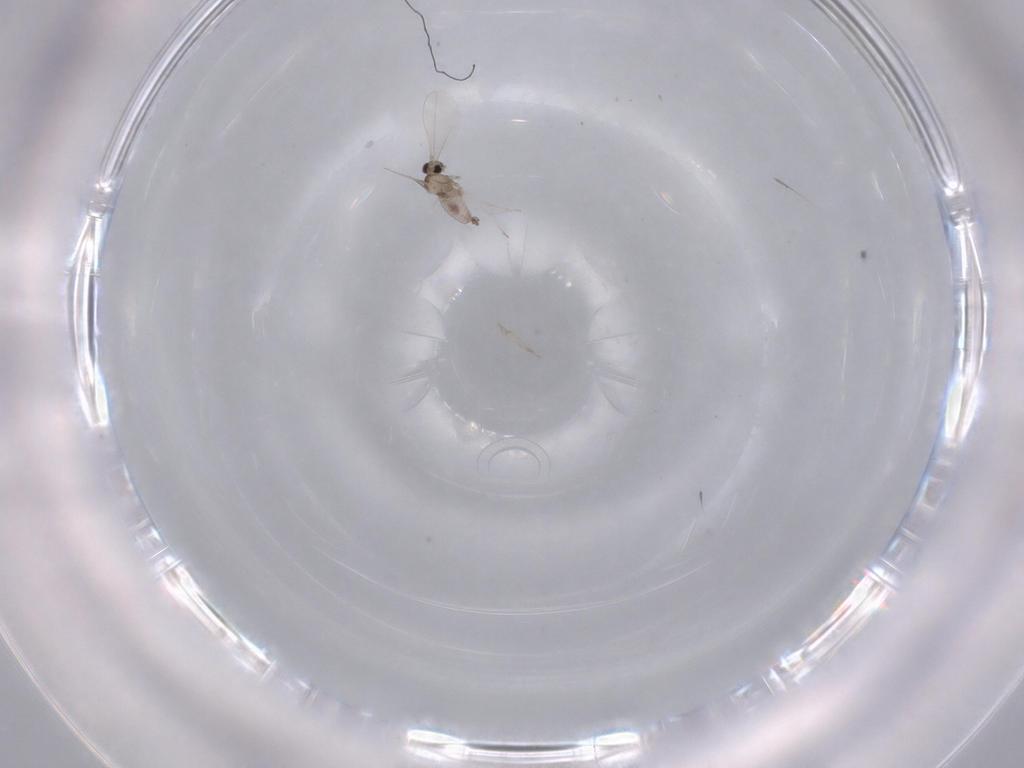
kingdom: Animalia
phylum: Arthropoda
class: Insecta
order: Diptera
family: Cecidomyiidae
